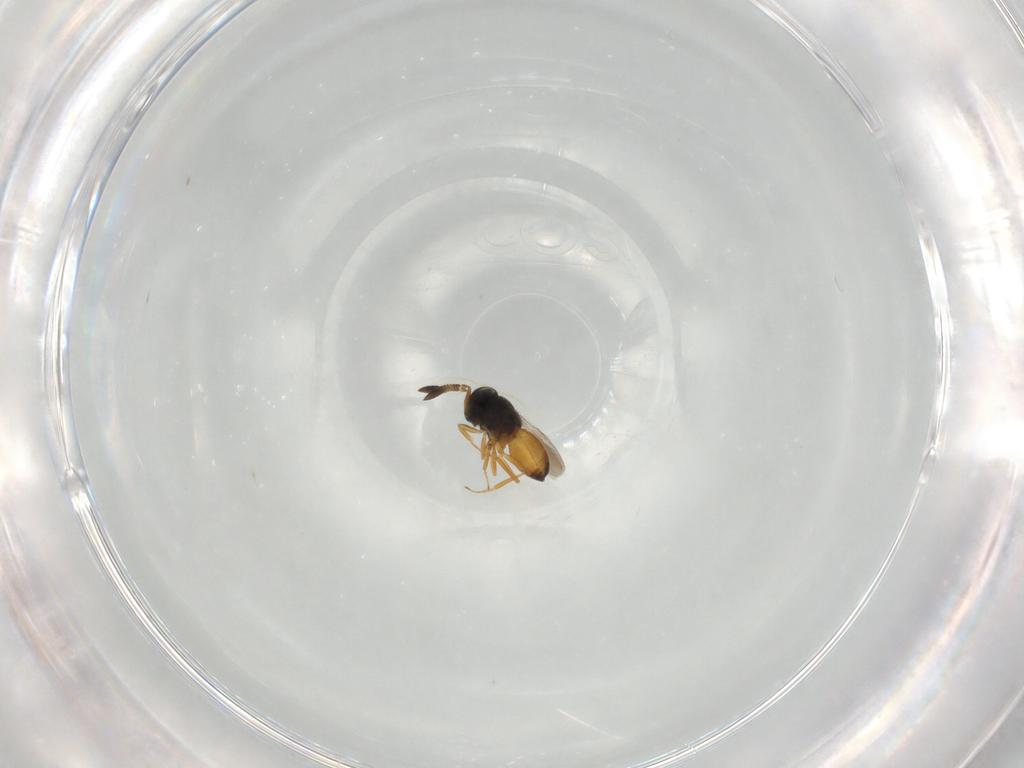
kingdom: Animalia
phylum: Arthropoda
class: Insecta
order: Hymenoptera
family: Scelionidae
